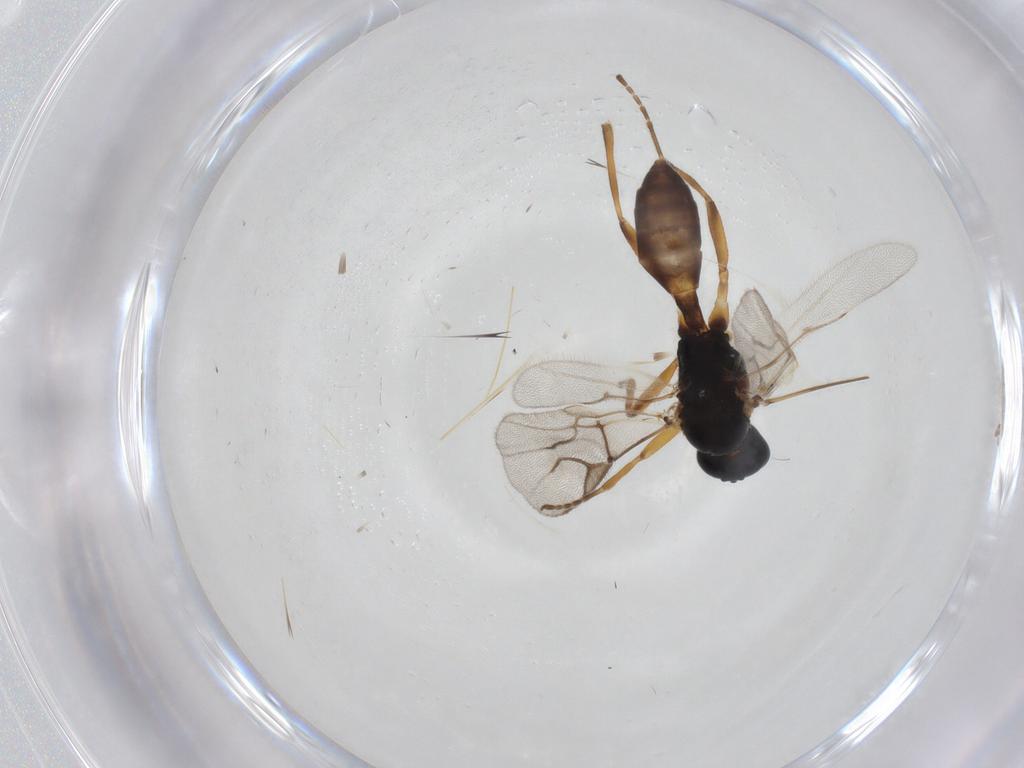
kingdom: Animalia
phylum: Arthropoda
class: Insecta
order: Hymenoptera
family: Braconidae
